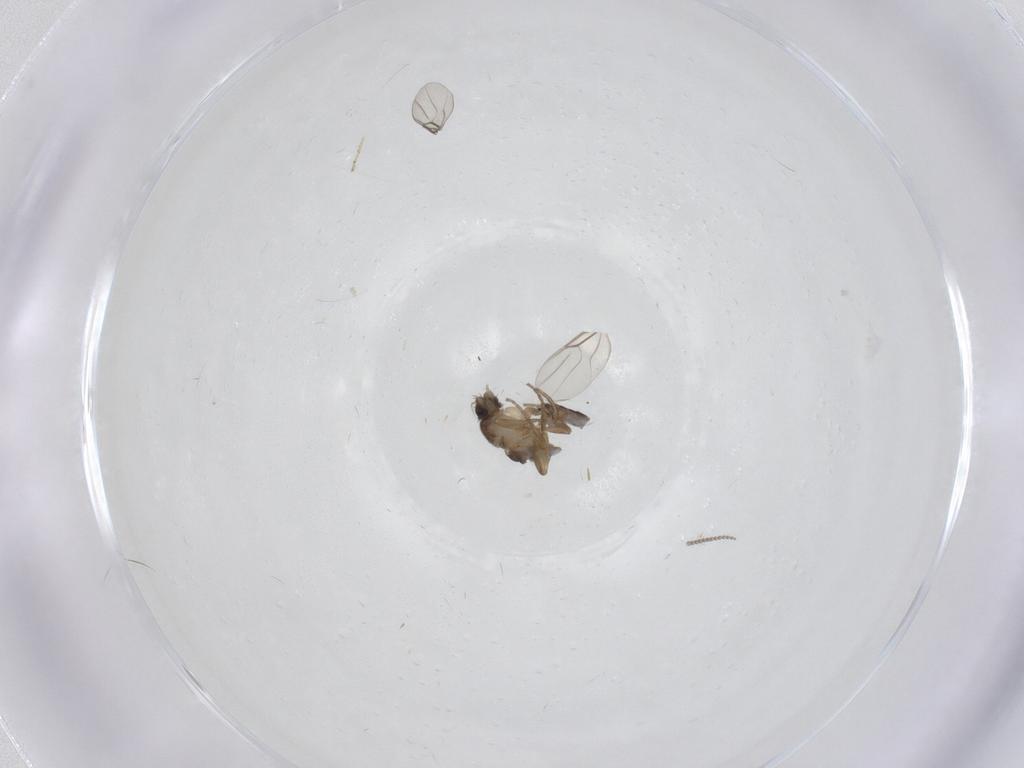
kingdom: Animalia
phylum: Arthropoda
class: Insecta
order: Diptera
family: Phoridae
